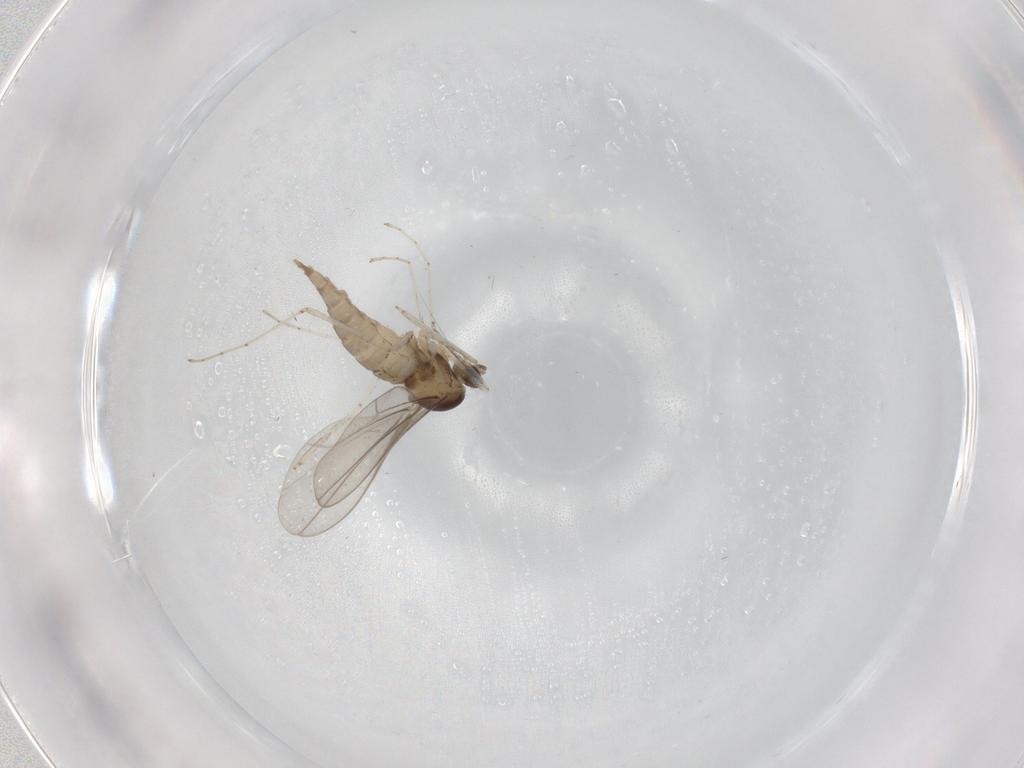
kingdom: Animalia
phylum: Arthropoda
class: Insecta
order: Diptera
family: Cecidomyiidae
